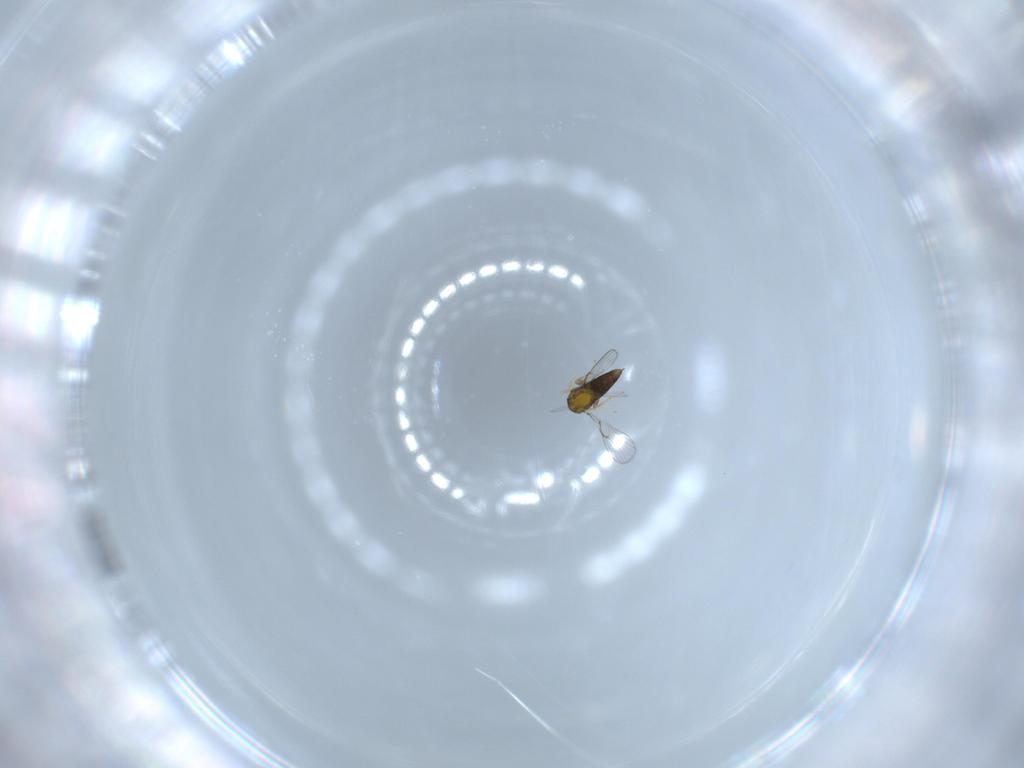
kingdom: Animalia
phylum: Arthropoda
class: Insecta
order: Hymenoptera
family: Trichogrammatidae
